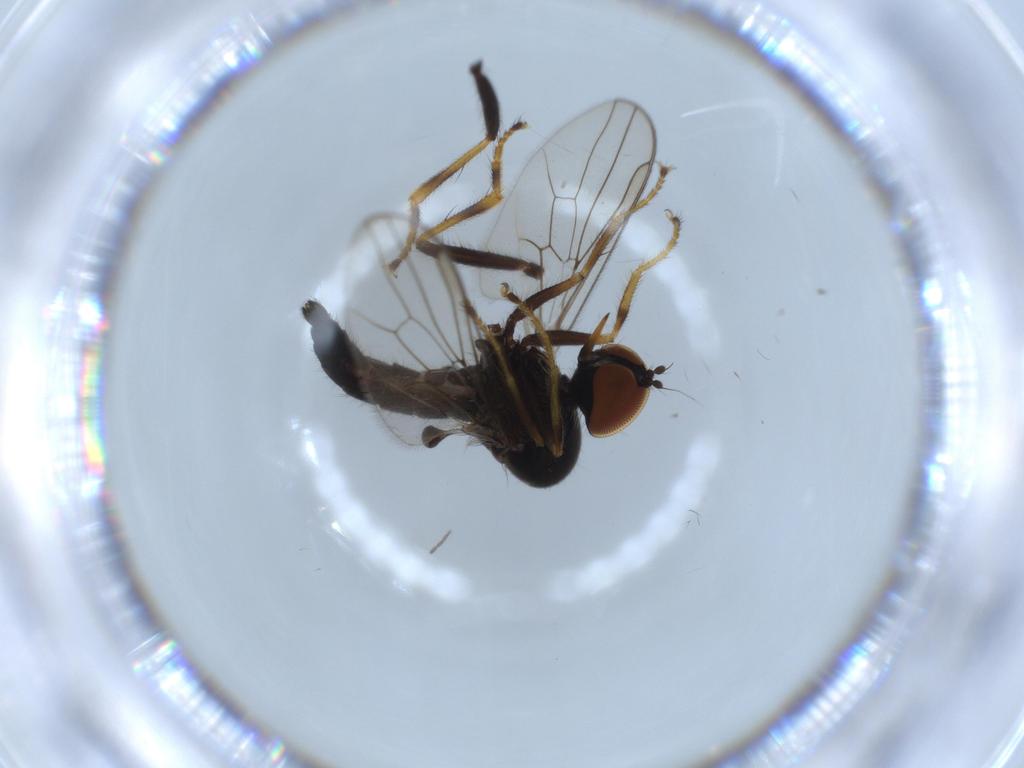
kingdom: Animalia
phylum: Arthropoda
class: Insecta
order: Diptera
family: Hybotidae
